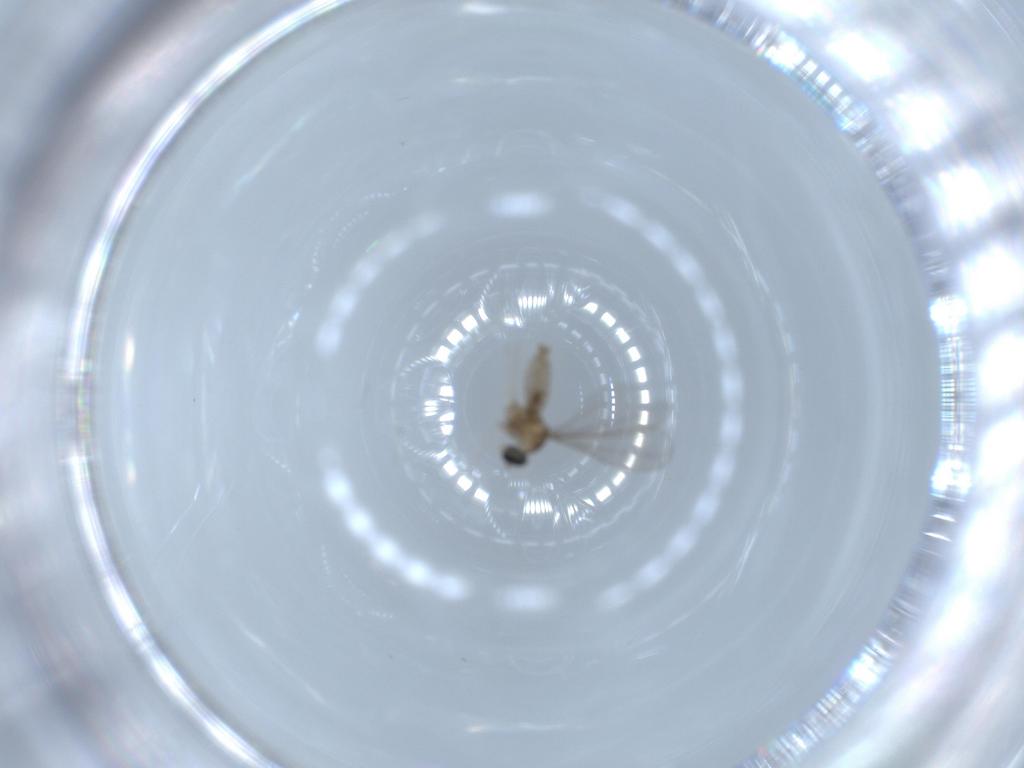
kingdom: Animalia
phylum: Arthropoda
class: Insecta
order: Diptera
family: Cecidomyiidae
